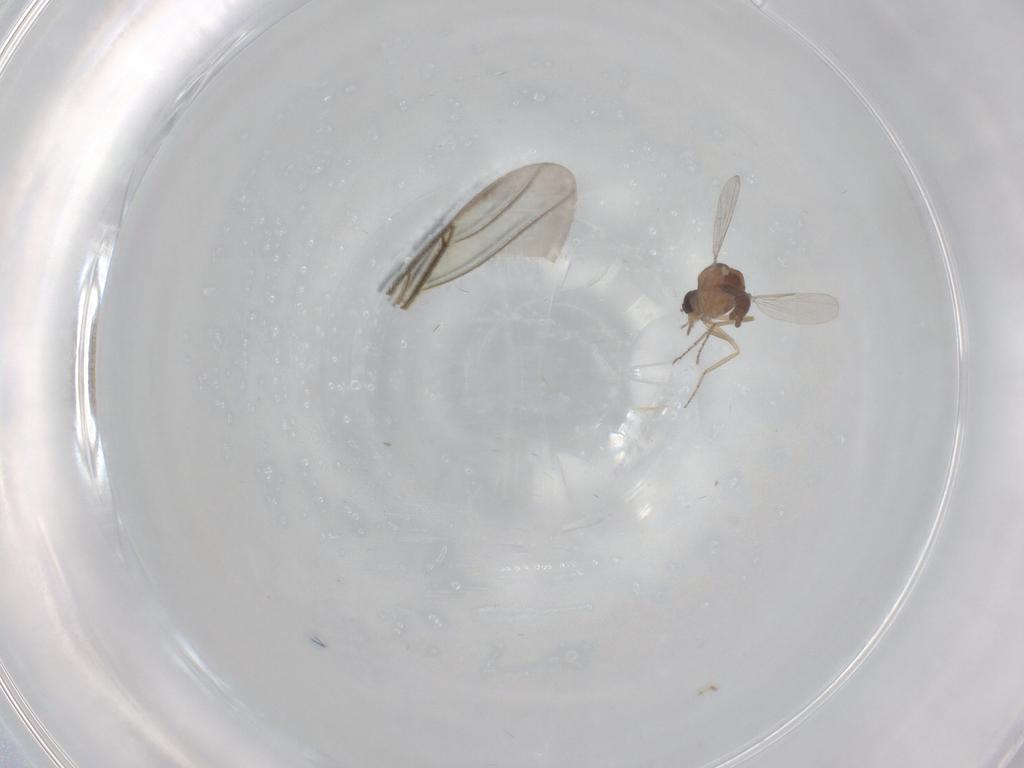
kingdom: Animalia
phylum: Arthropoda
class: Insecta
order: Diptera
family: Ceratopogonidae
